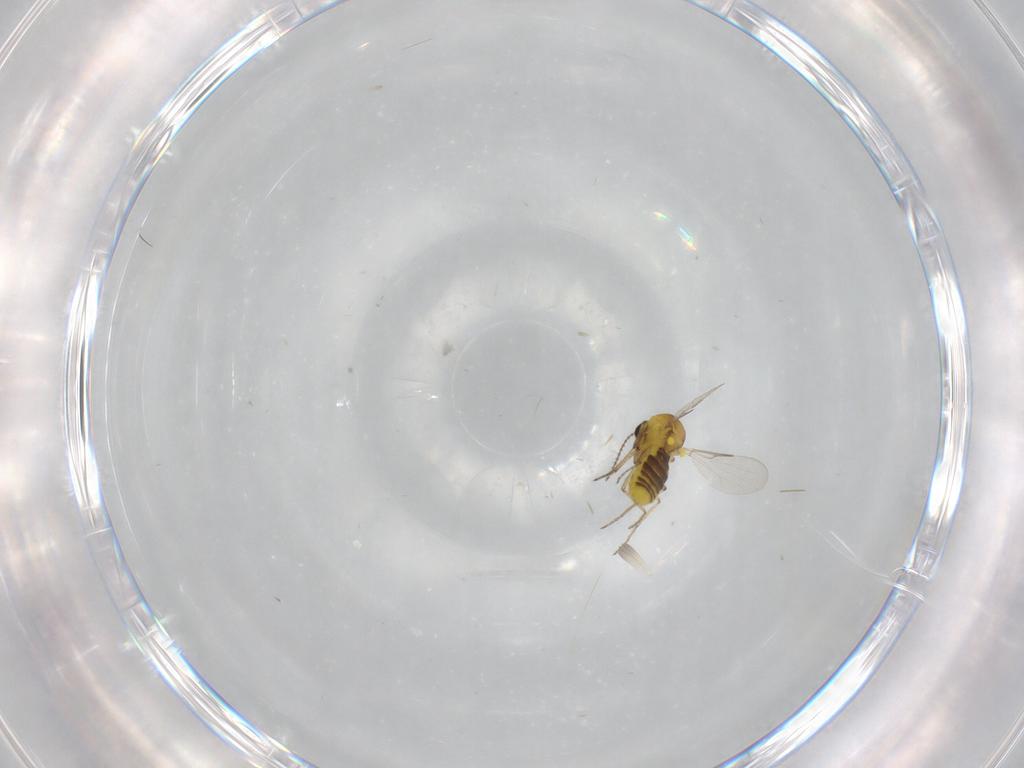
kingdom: Animalia
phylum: Arthropoda
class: Insecta
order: Diptera
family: Ceratopogonidae
